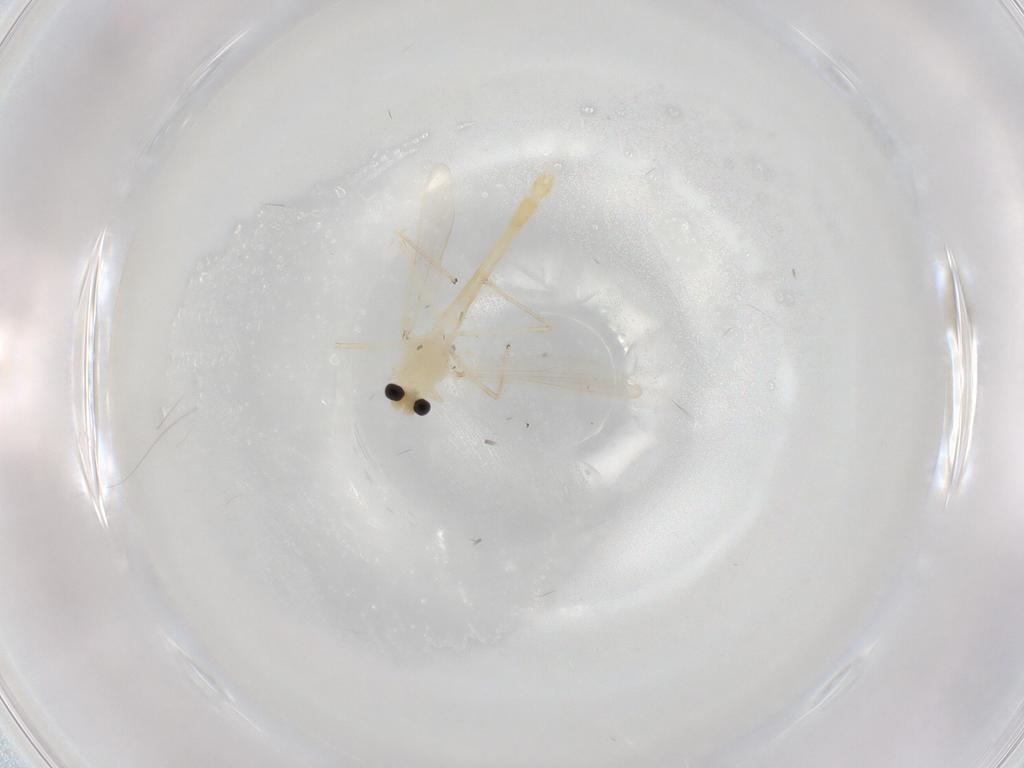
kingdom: Animalia
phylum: Arthropoda
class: Insecta
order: Diptera
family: Chironomidae
